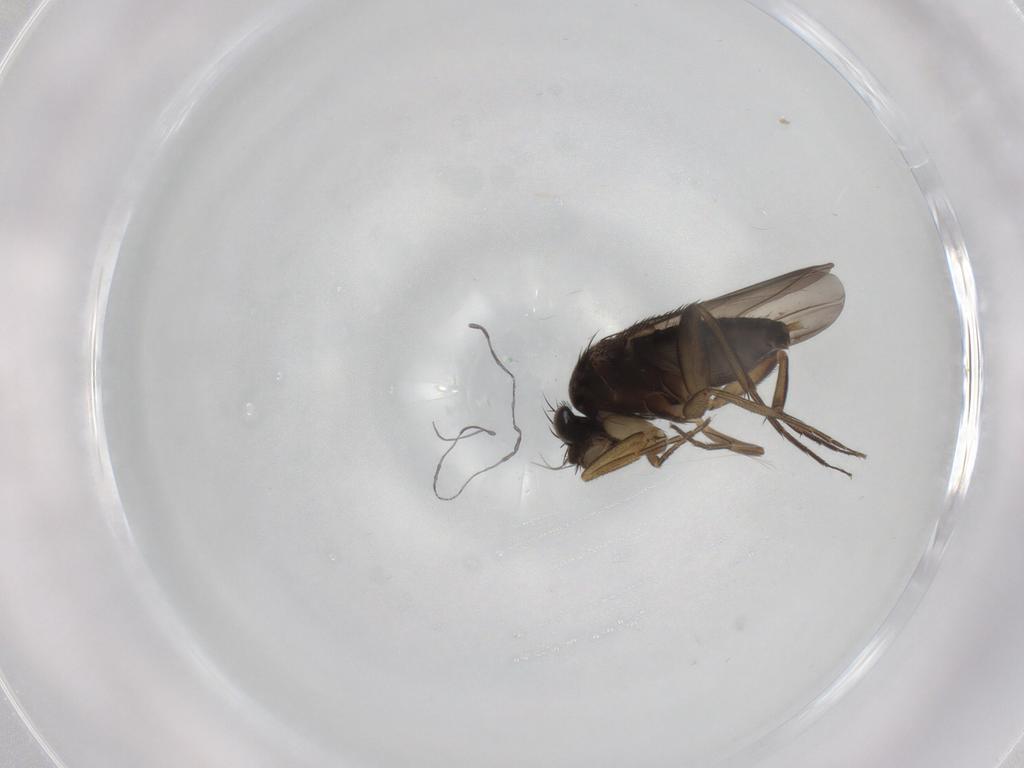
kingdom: Animalia
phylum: Arthropoda
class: Insecta
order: Diptera
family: Phoridae
